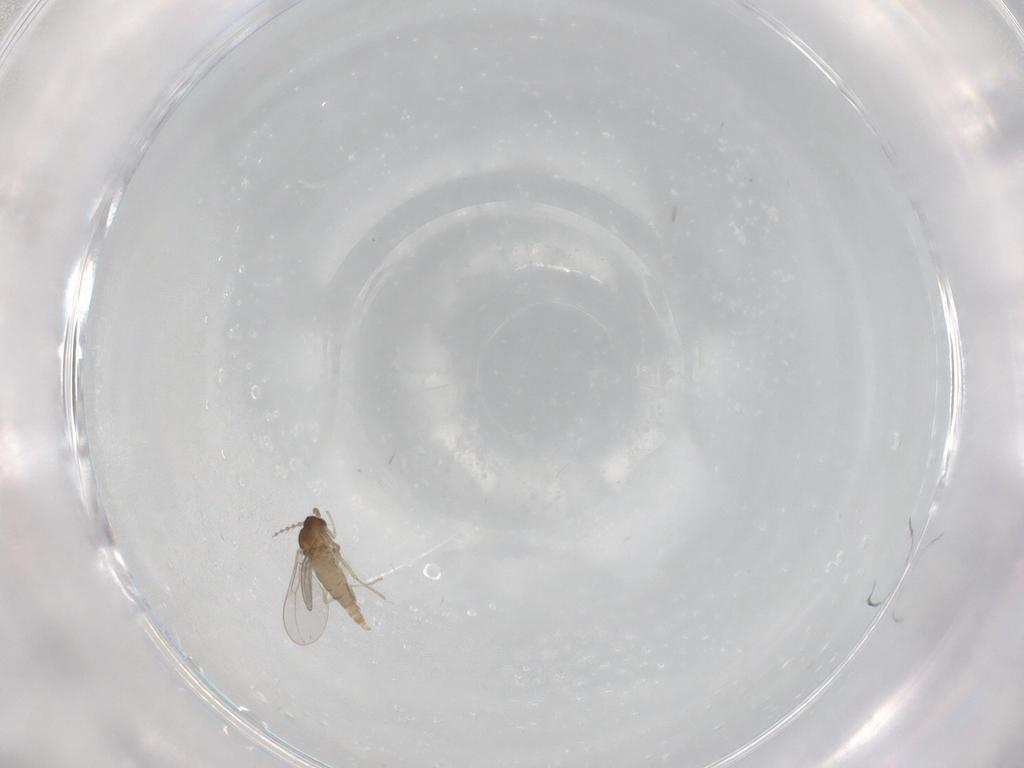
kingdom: Animalia
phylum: Arthropoda
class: Insecta
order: Diptera
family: Cecidomyiidae
